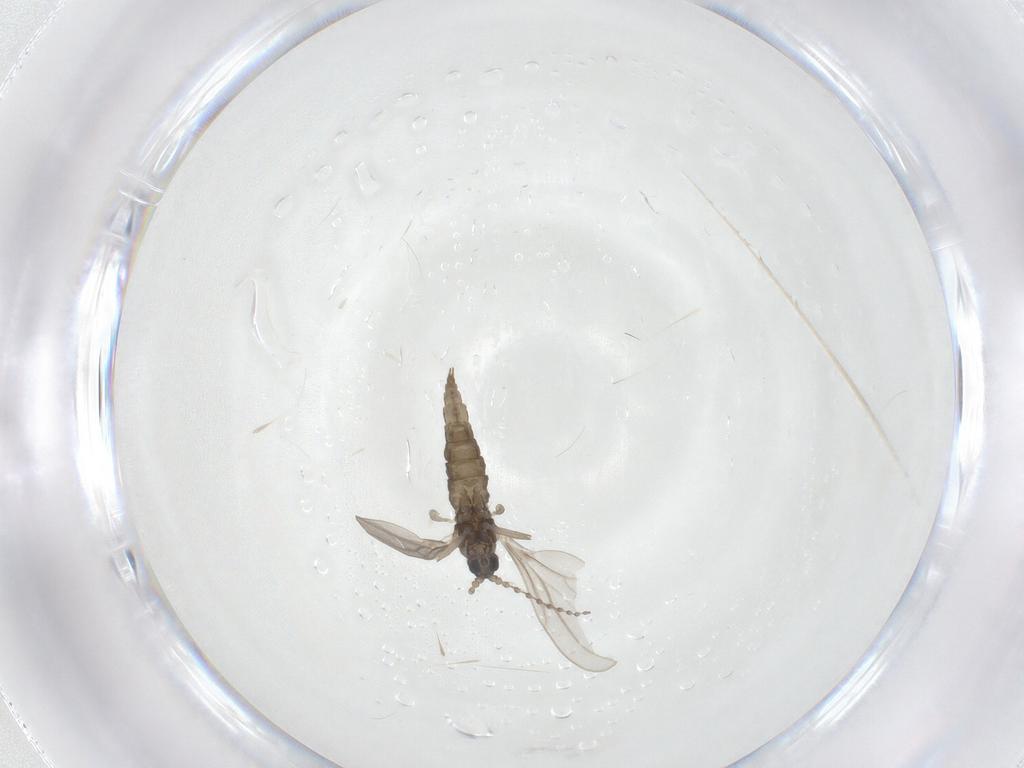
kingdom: Animalia
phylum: Arthropoda
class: Insecta
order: Diptera
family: Cecidomyiidae
